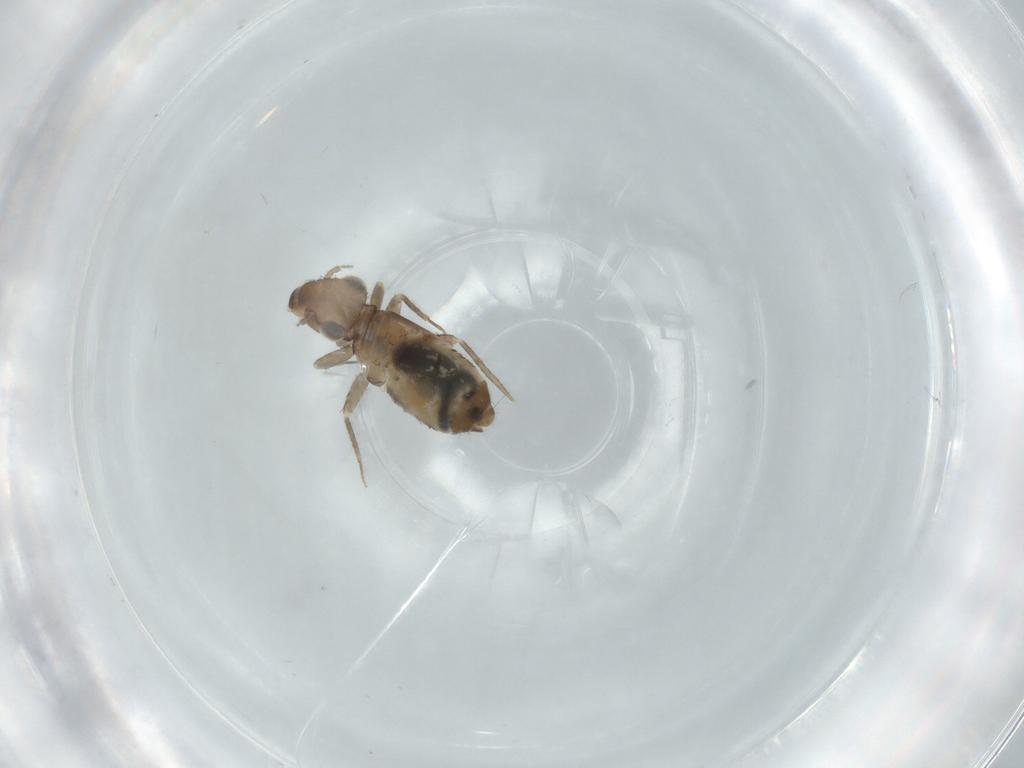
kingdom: Animalia
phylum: Arthropoda
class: Insecta
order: Psocodea
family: Lepidopsocidae
